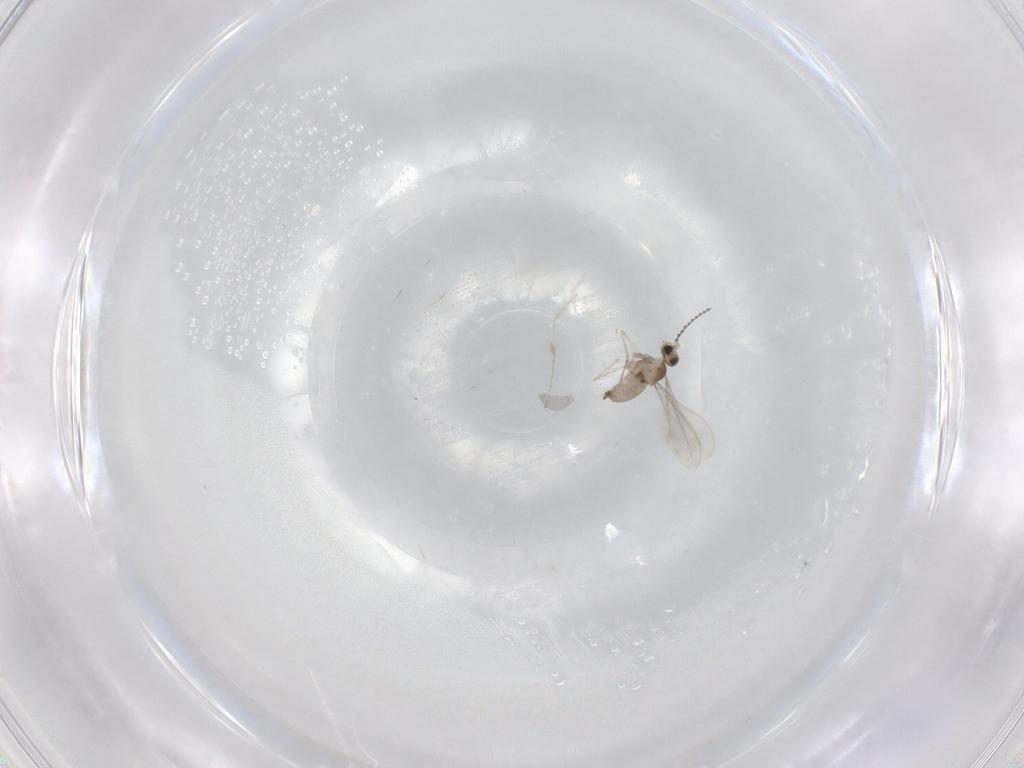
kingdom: Animalia
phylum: Arthropoda
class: Insecta
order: Diptera
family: Cecidomyiidae
